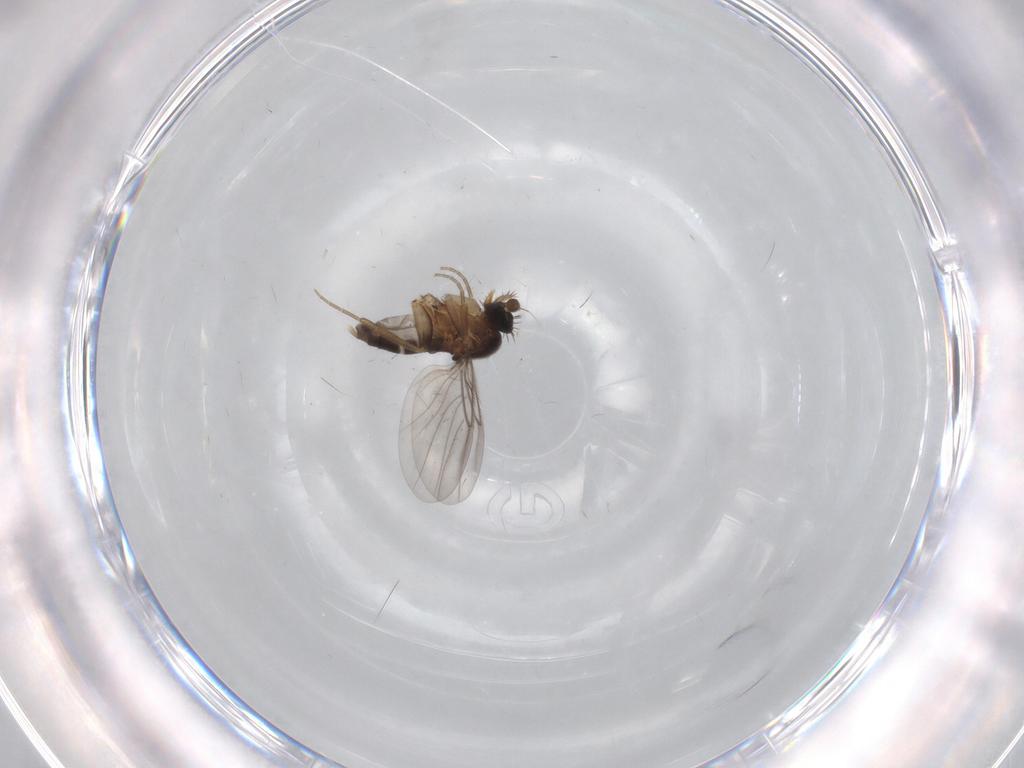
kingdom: Animalia
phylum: Arthropoda
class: Insecta
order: Diptera
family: Phoridae
